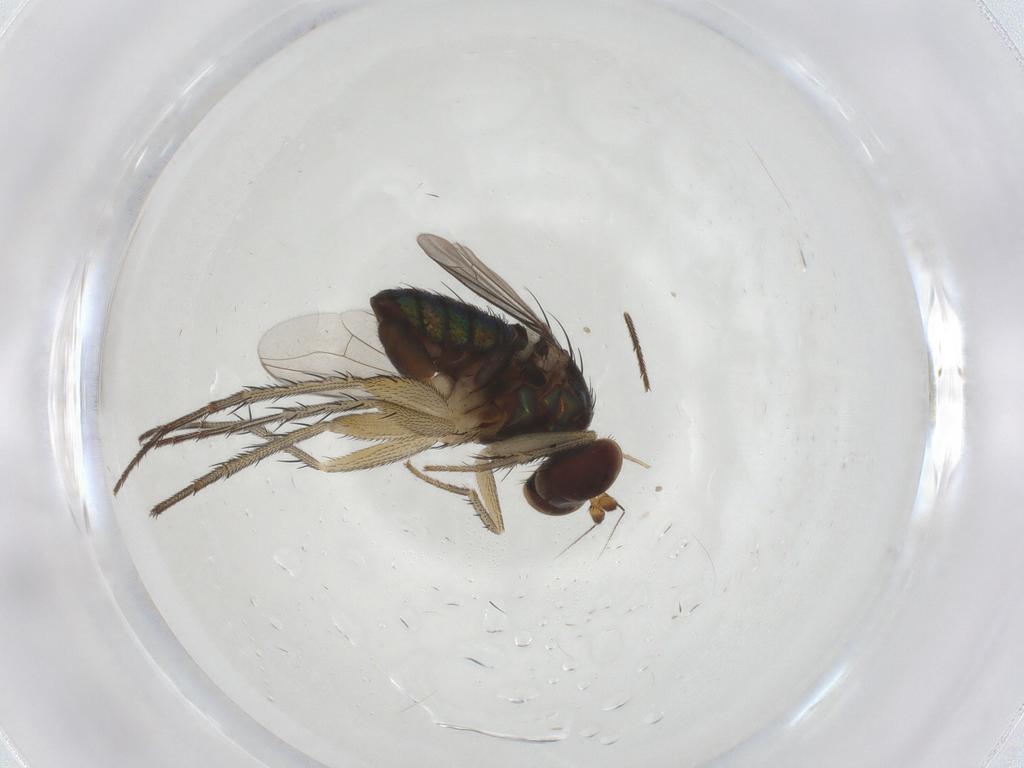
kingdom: Animalia
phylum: Arthropoda
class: Insecta
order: Diptera
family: Dolichopodidae
